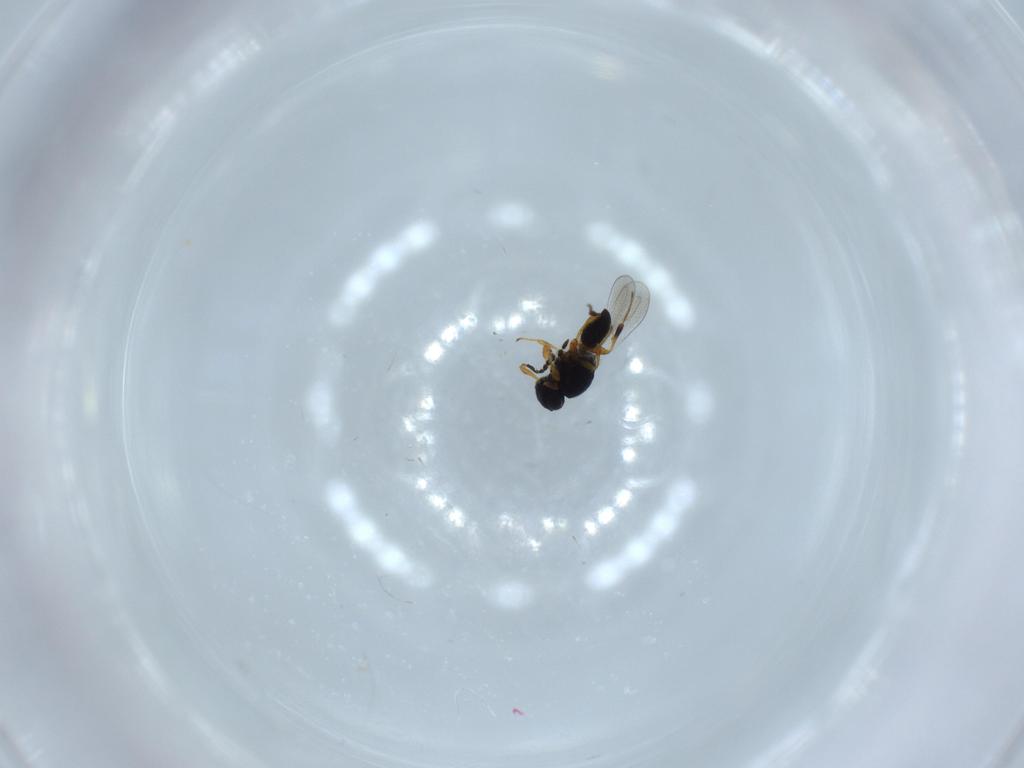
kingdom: Animalia
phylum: Arthropoda
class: Insecta
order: Hymenoptera
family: Platygastridae
